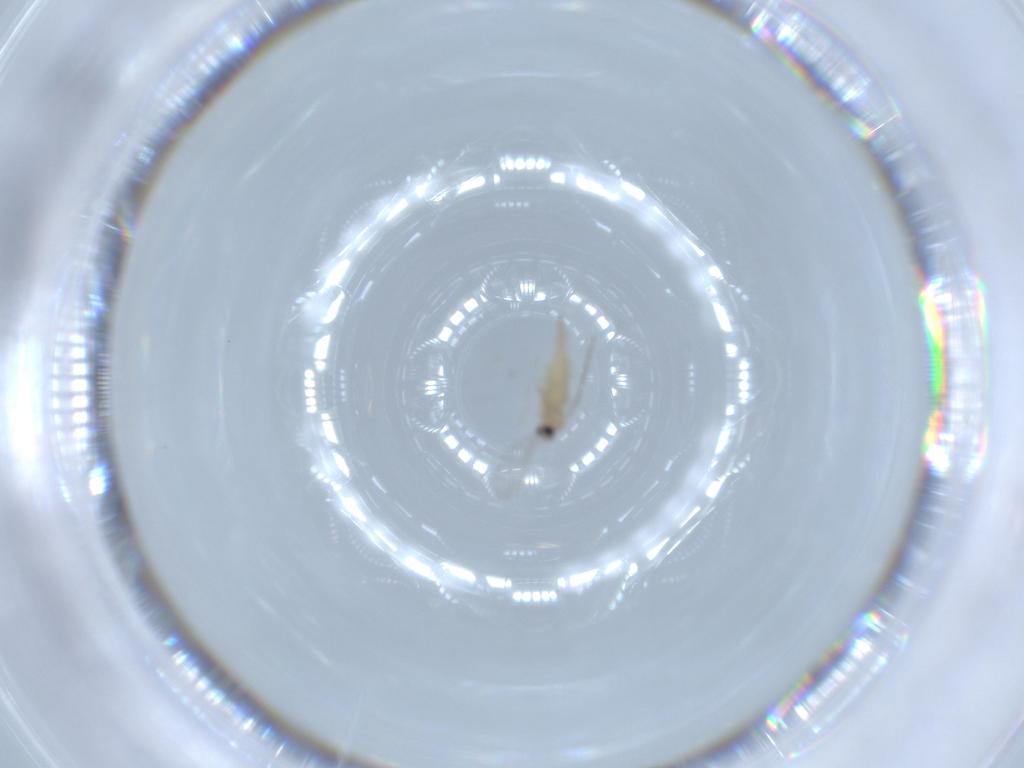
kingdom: Animalia
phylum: Arthropoda
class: Insecta
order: Diptera
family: Cecidomyiidae
